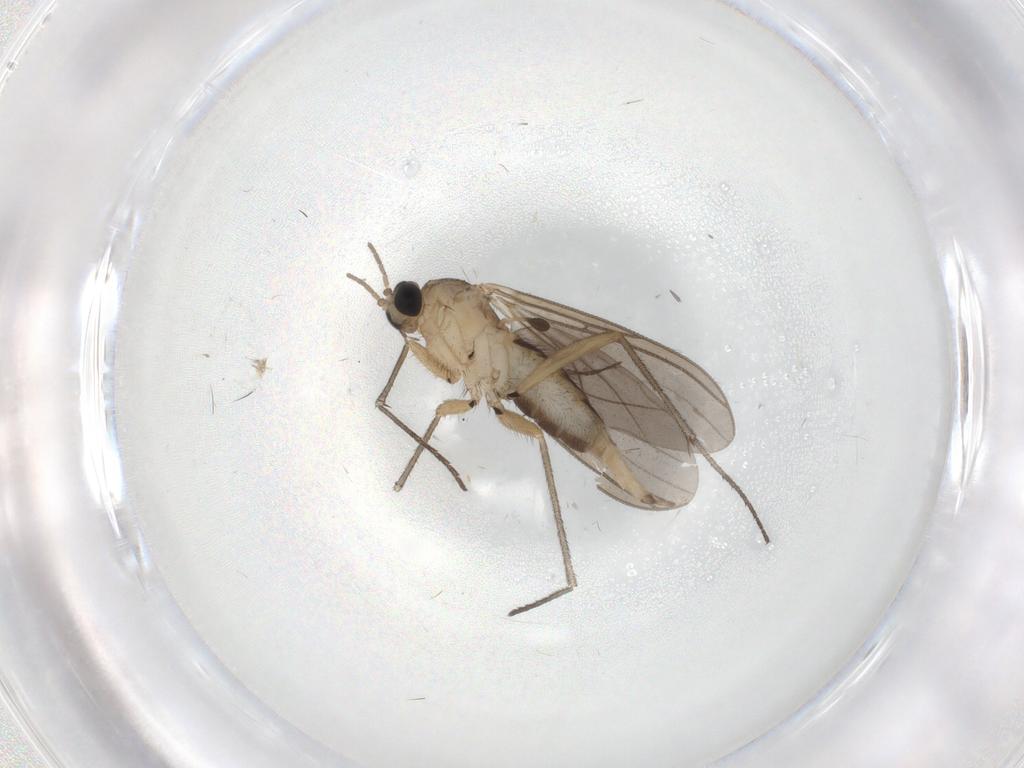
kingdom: Animalia
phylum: Arthropoda
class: Insecta
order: Diptera
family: Sciaridae
